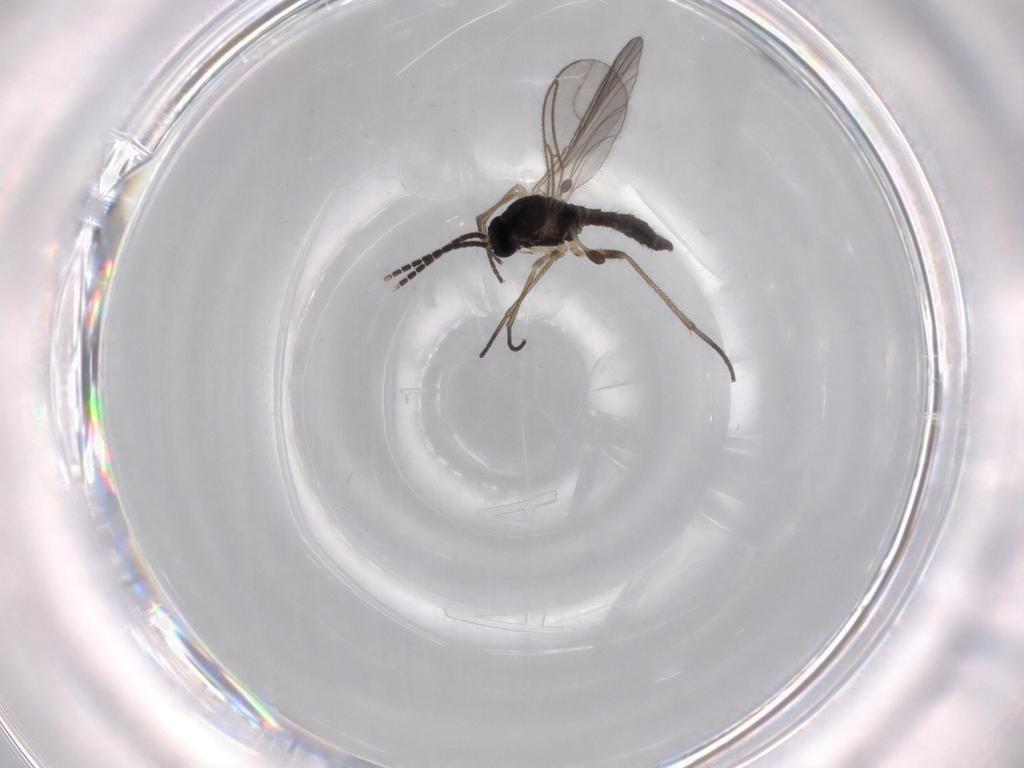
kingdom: Animalia
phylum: Arthropoda
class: Insecta
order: Diptera
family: Sciaridae
